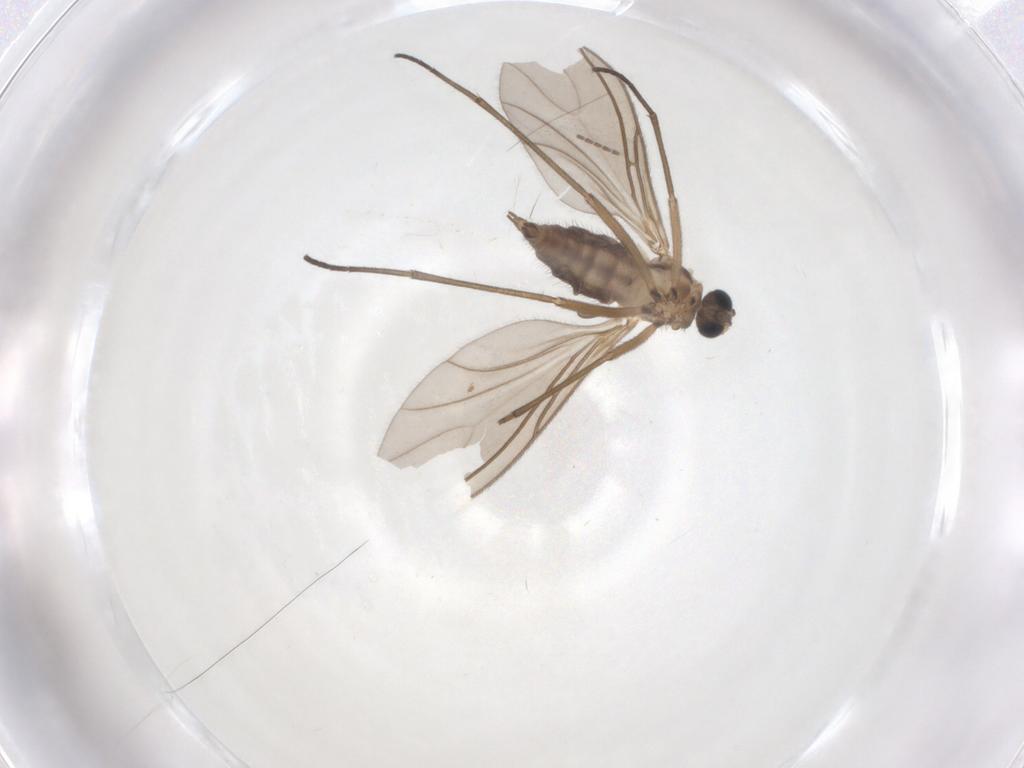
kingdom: Animalia
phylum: Arthropoda
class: Insecta
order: Diptera
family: Sciaridae
